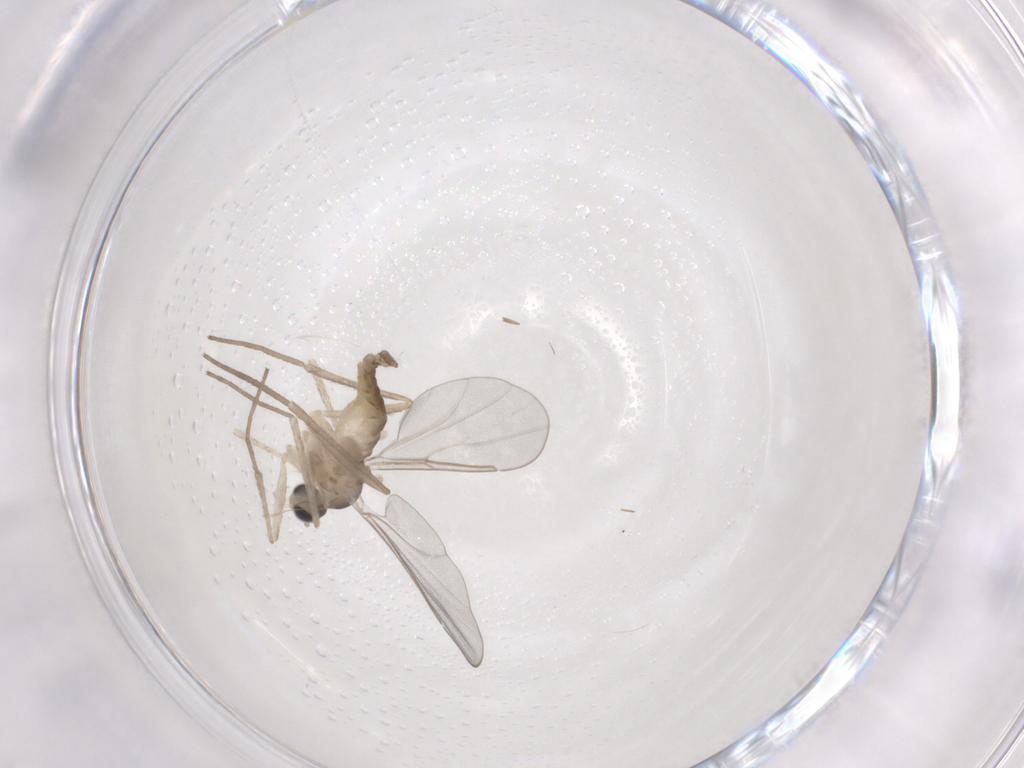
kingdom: Animalia
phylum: Arthropoda
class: Insecta
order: Diptera
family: Cecidomyiidae
